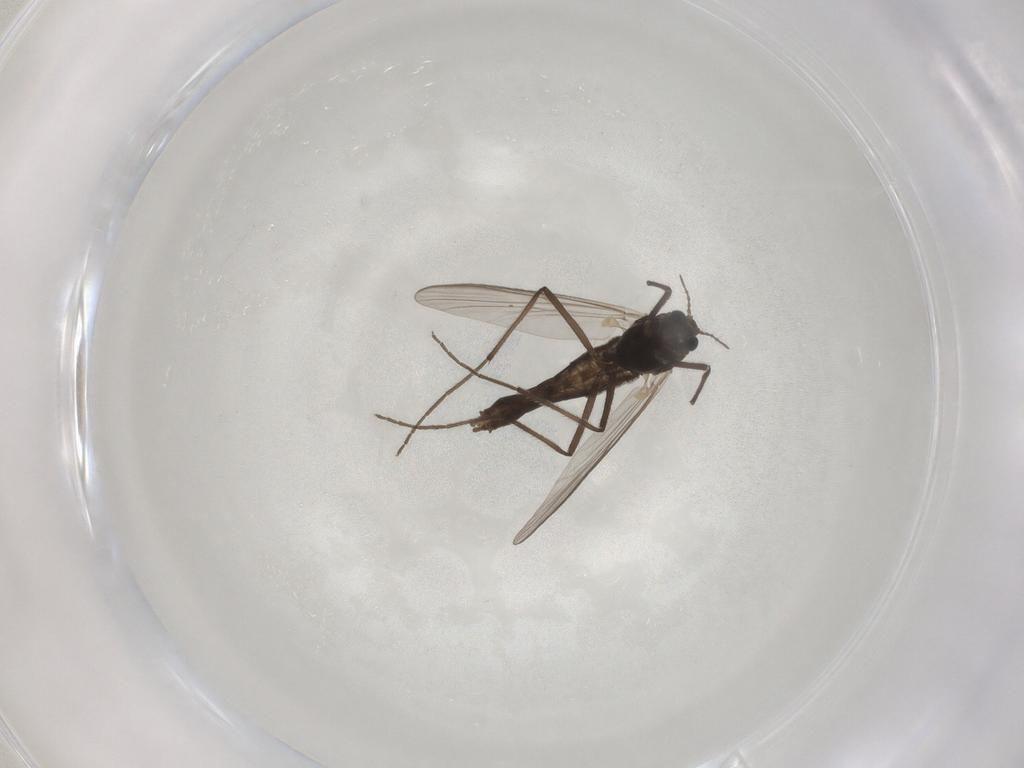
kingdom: Animalia
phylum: Arthropoda
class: Insecta
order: Diptera
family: Chironomidae
